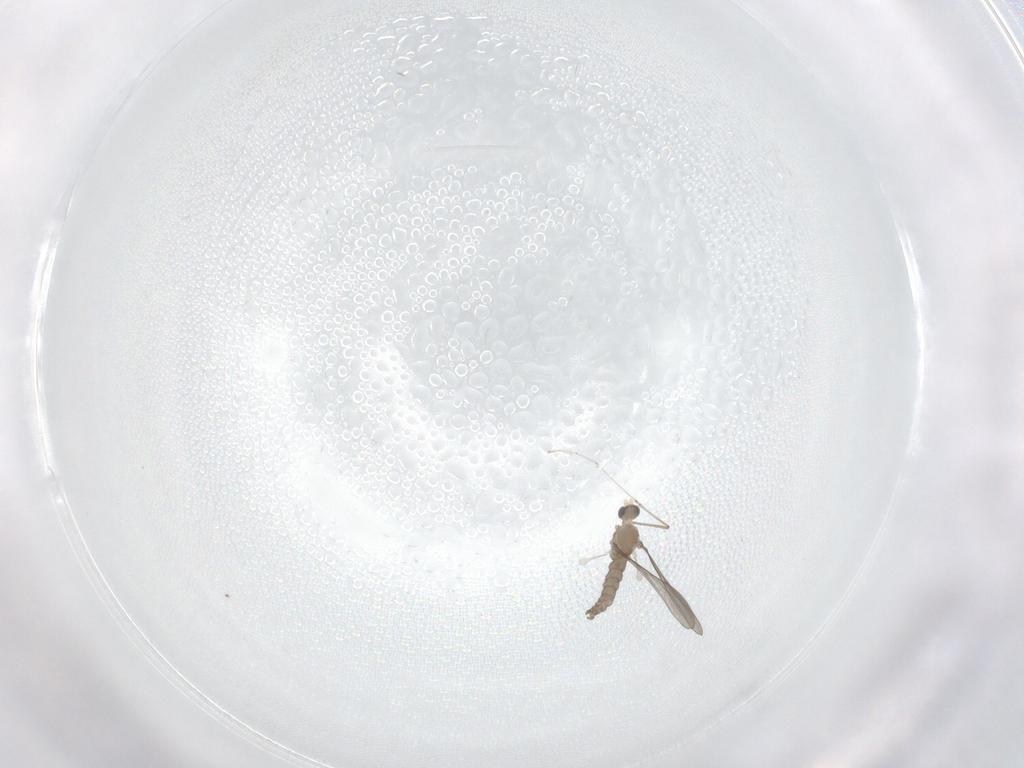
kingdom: Animalia
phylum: Arthropoda
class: Insecta
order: Diptera
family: Cecidomyiidae
